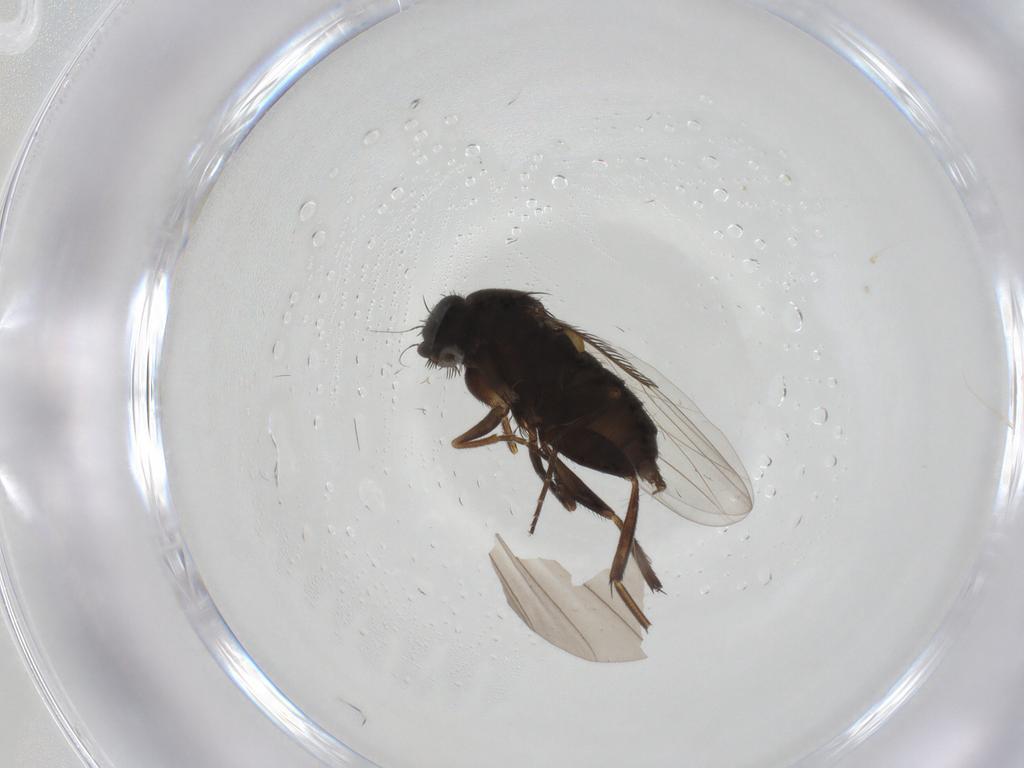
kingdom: Animalia
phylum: Arthropoda
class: Insecta
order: Diptera
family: Phoridae
